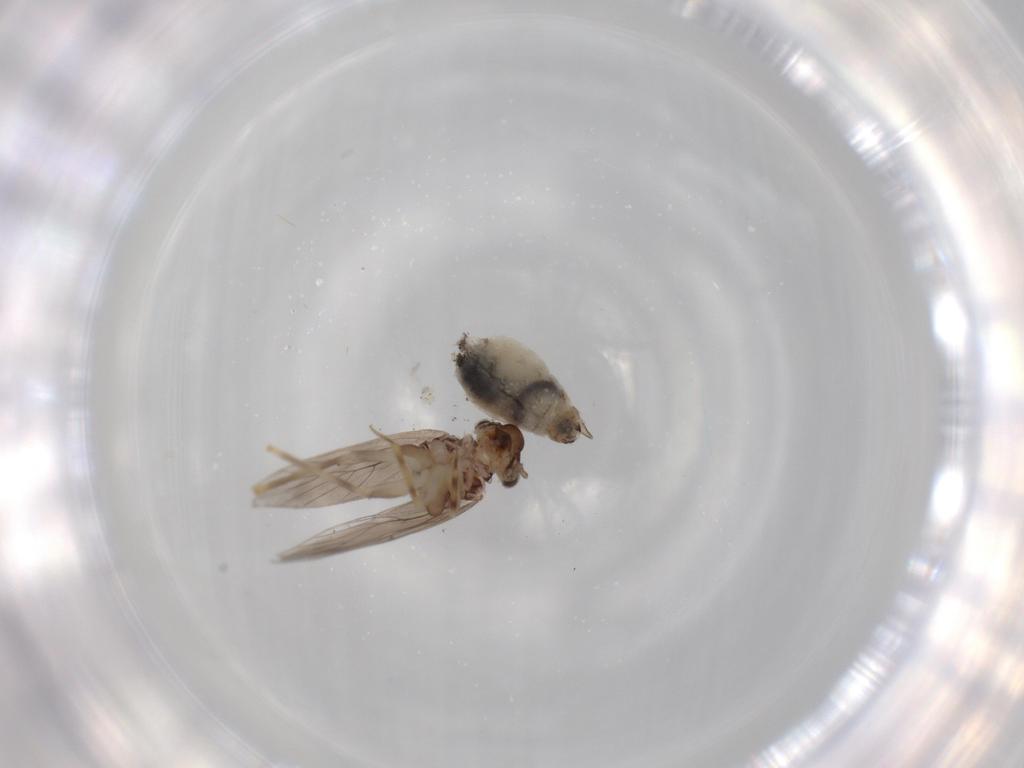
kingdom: Animalia
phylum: Arthropoda
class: Insecta
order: Psocodea
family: Lepidopsocidae
